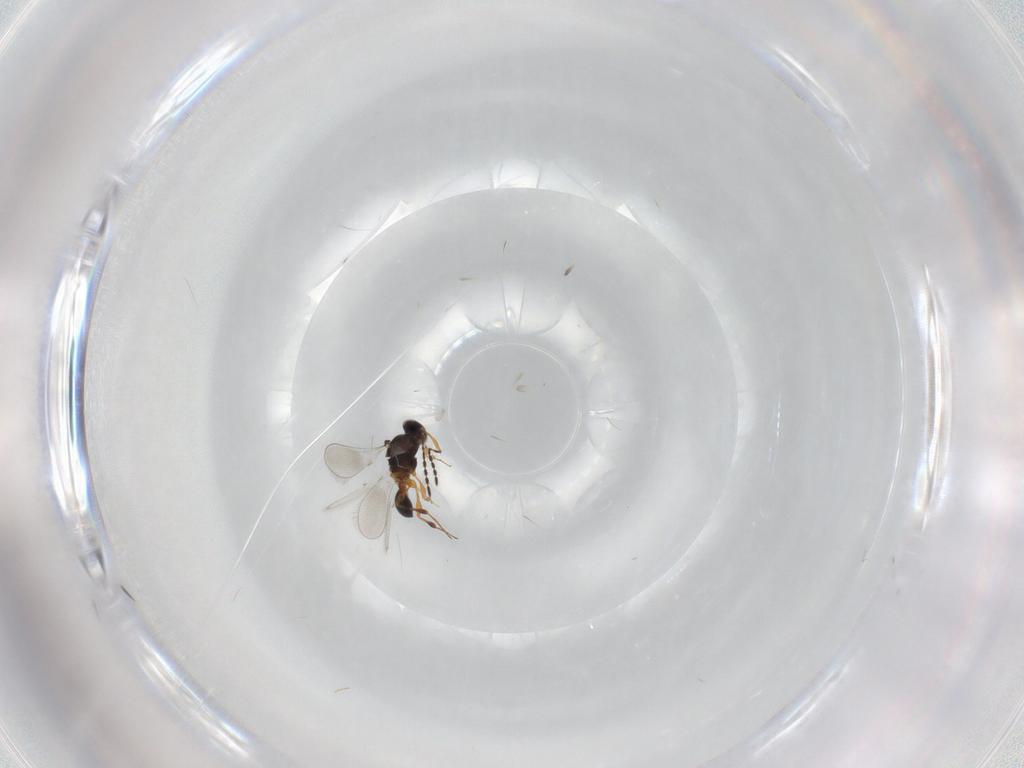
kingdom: Animalia
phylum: Arthropoda
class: Insecta
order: Hymenoptera
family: Platygastridae
